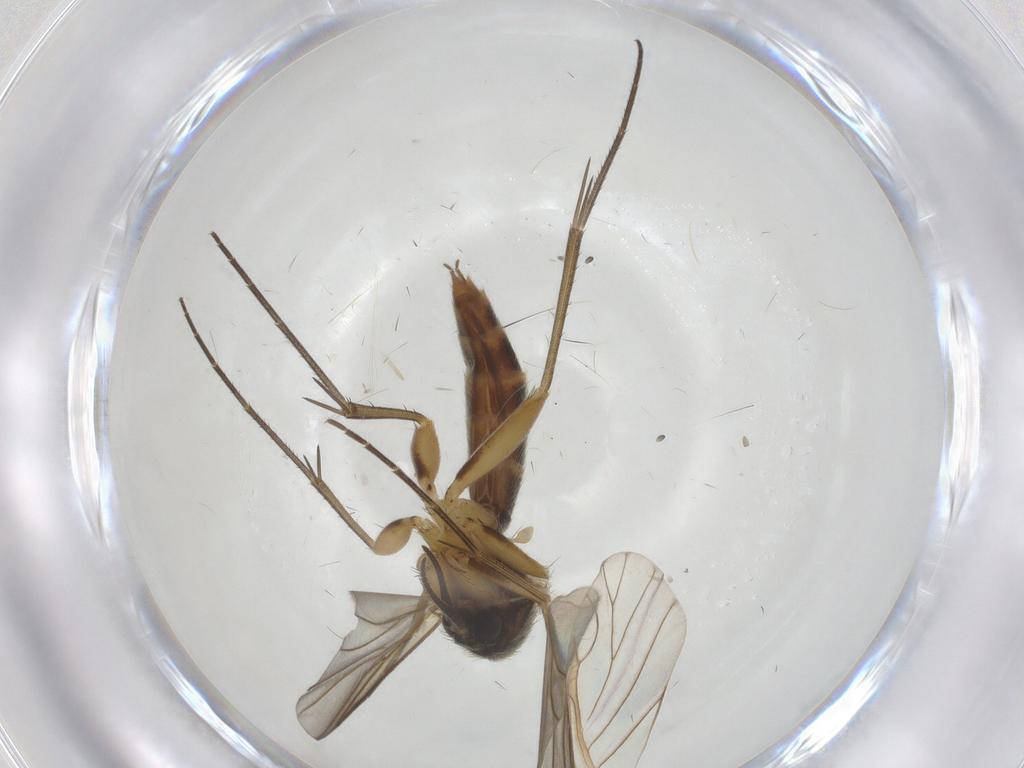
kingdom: Animalia
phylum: Arthropoda
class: Insecta
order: Diptera
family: Mycetophilidae
